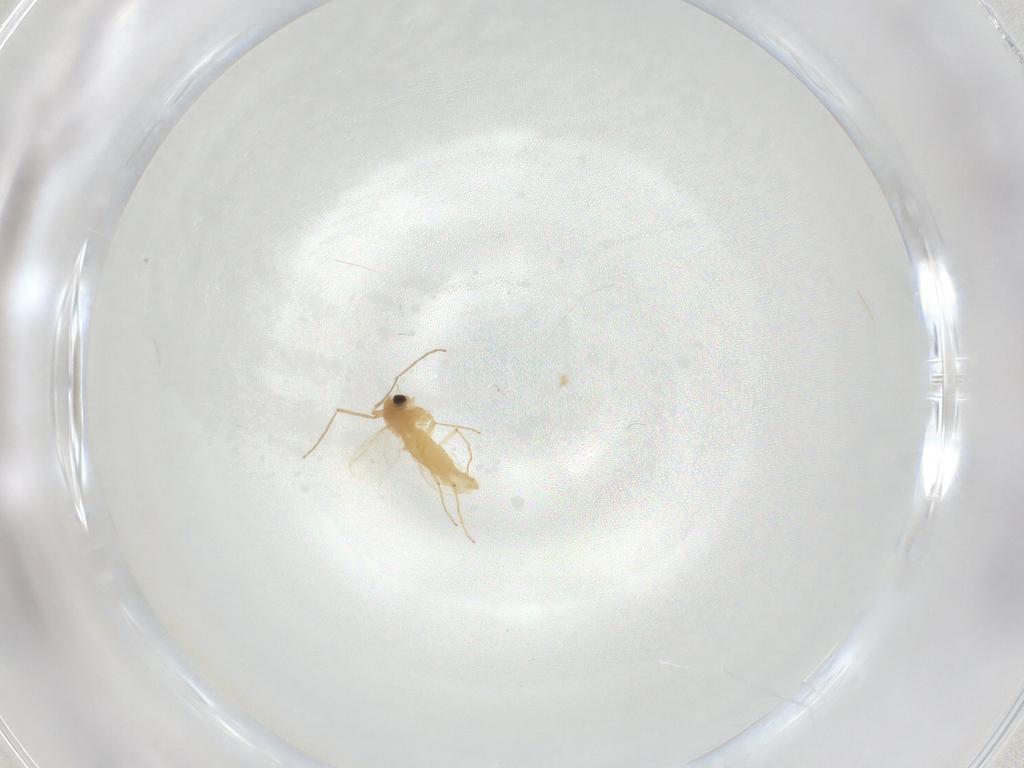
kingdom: Animalia
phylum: Arthropoda
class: Insecta
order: Diptera
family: Chironomidae
